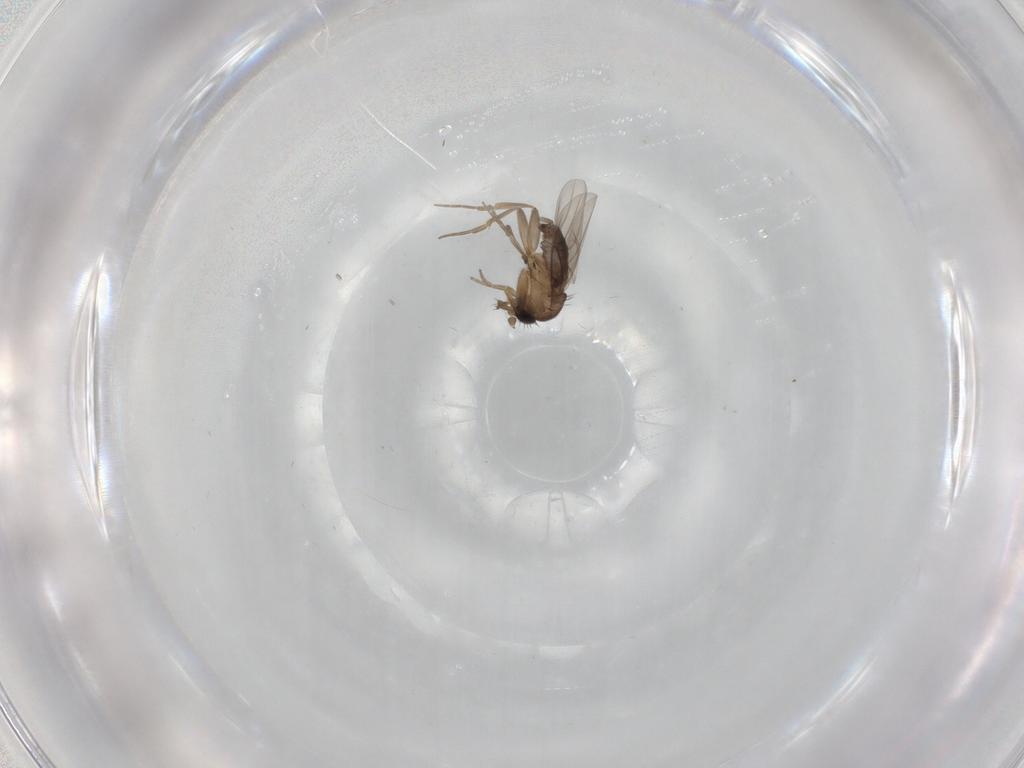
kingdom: Animalia
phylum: Arthropoda
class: Insecta
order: Diptera
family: Phoridae
